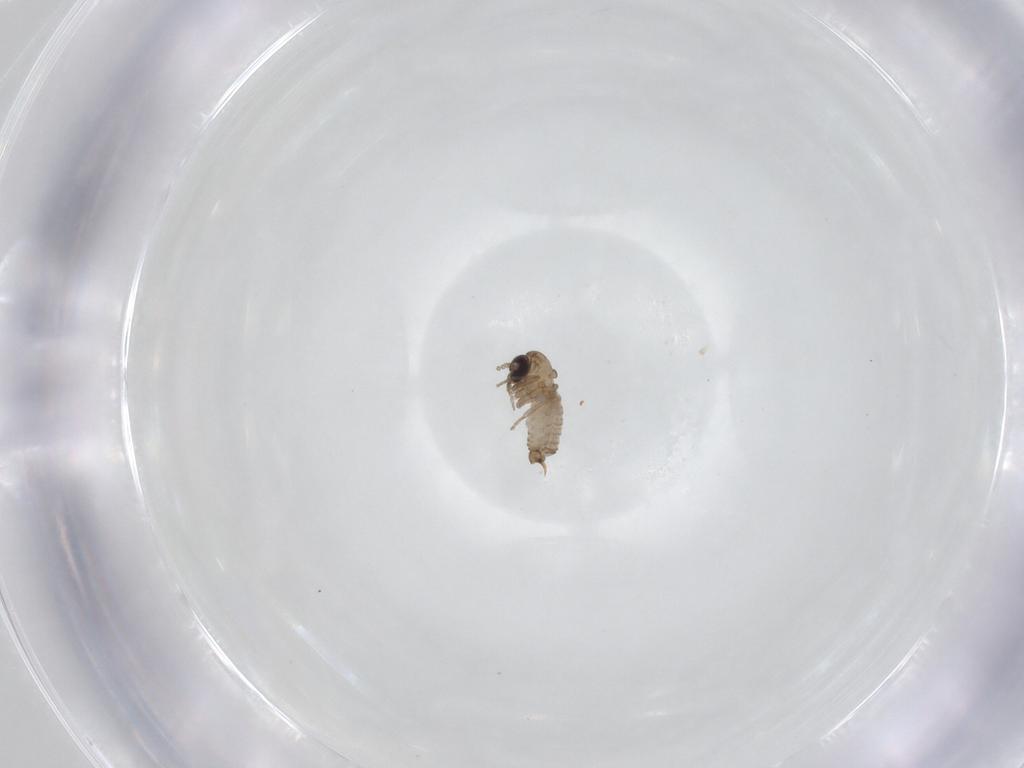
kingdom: Animalia
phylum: Arthropoda
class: Insecta
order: Diptera
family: Psychodidae
